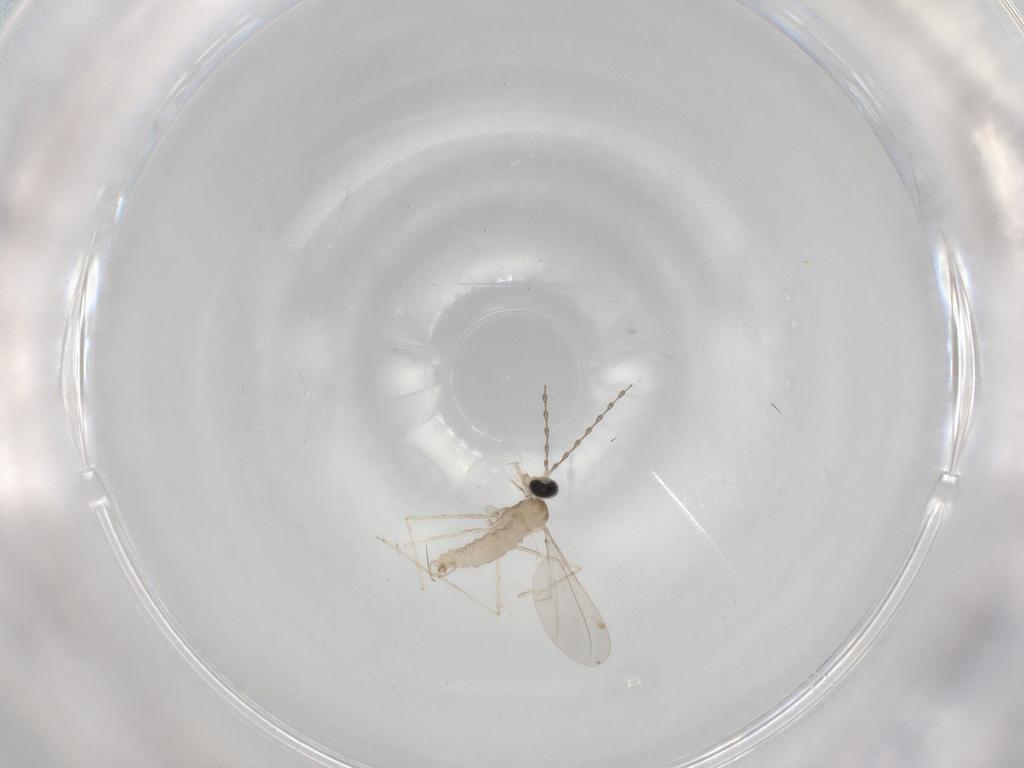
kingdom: Animalia
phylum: Arthropoda
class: Insecta
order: Diptera
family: Cecidomyiidae
